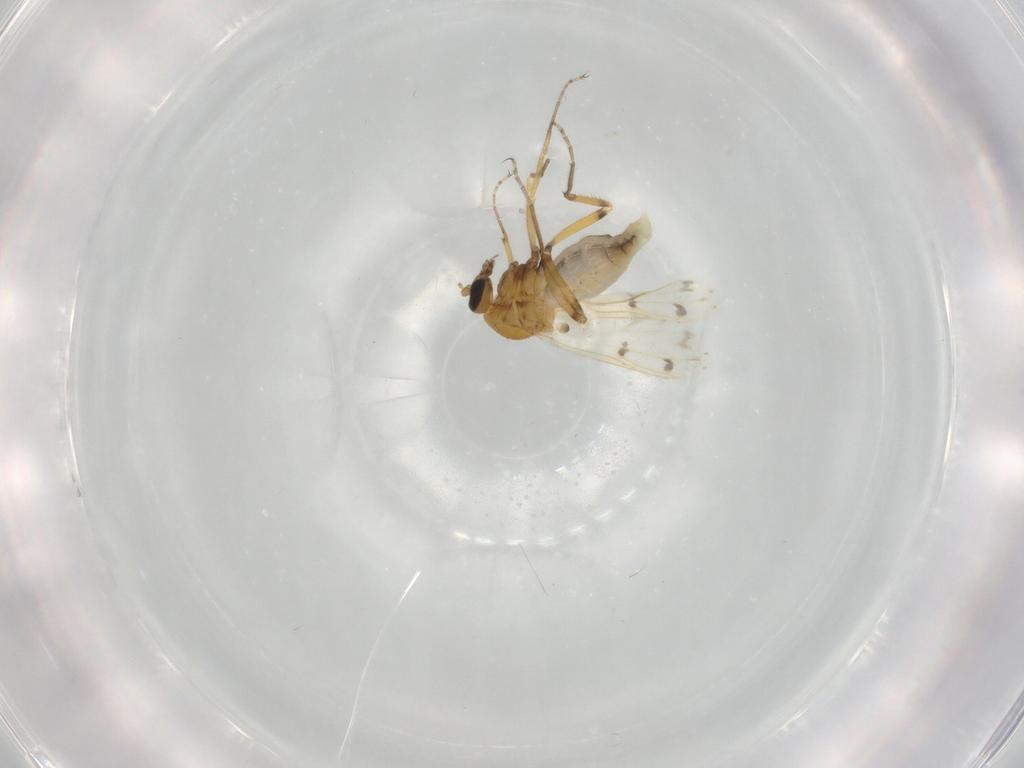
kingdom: Animalia
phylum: Arthropoda
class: Insecta
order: Diptera
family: Ceratopogonidae
